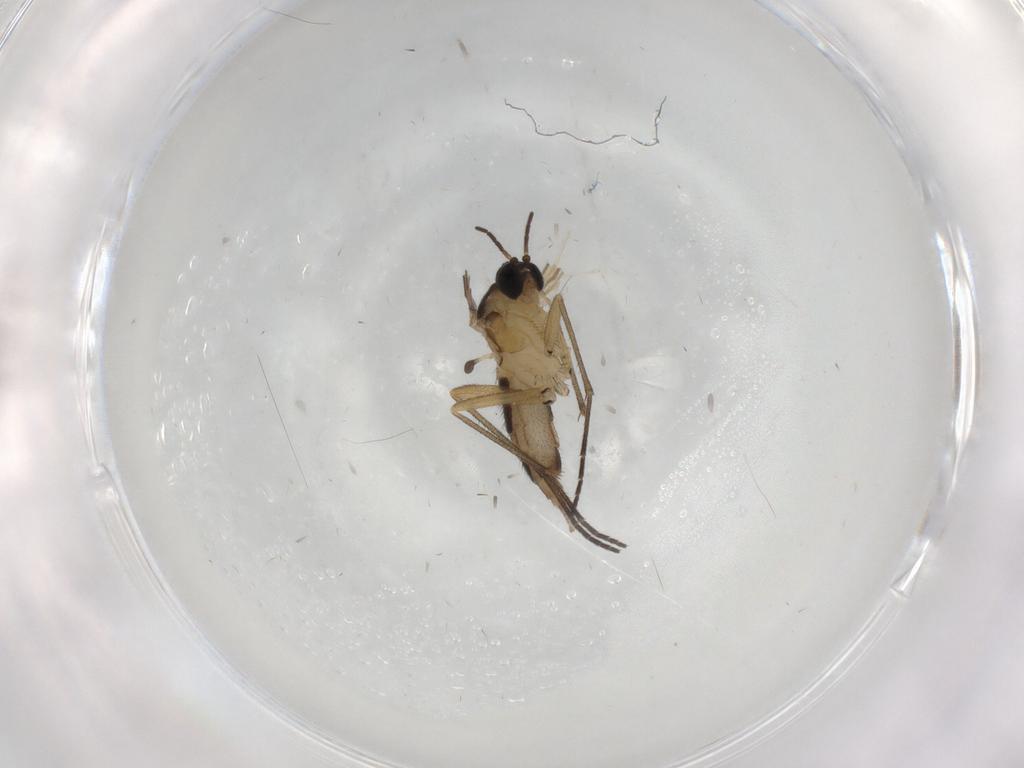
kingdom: Animalia
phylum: Arthropoda
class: Insecta
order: Diptera
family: Cecidomyiidae
